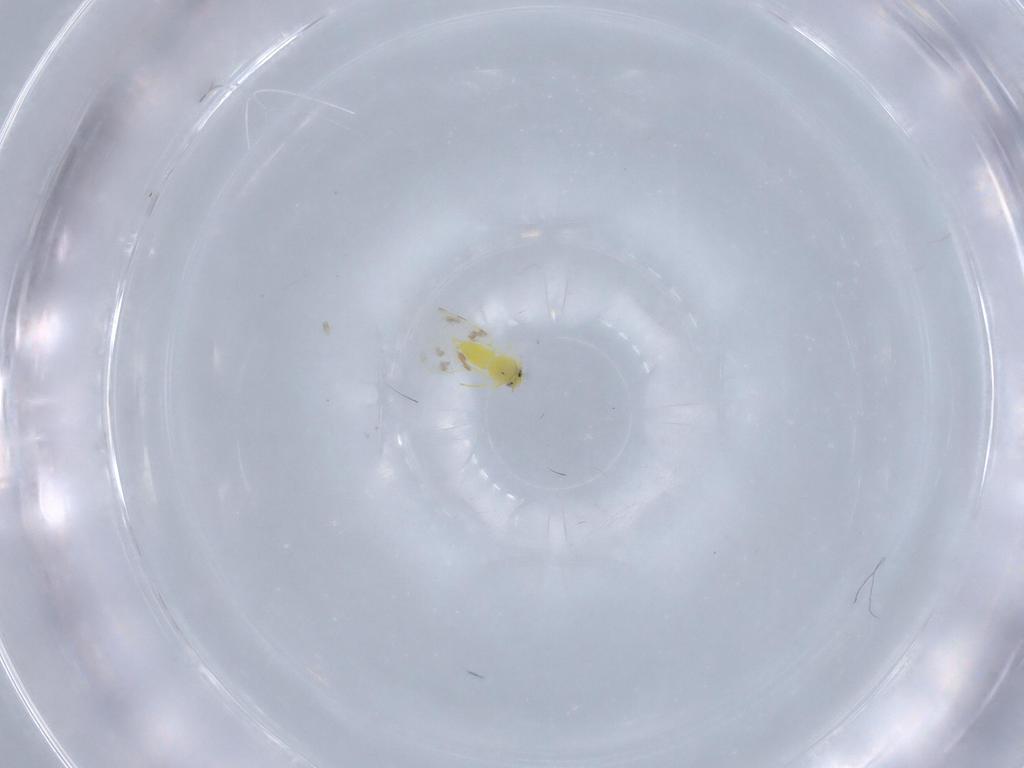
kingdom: Animalia
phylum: Arthropoda
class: Insecta
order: Hemiptera
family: Aleyrodidae
